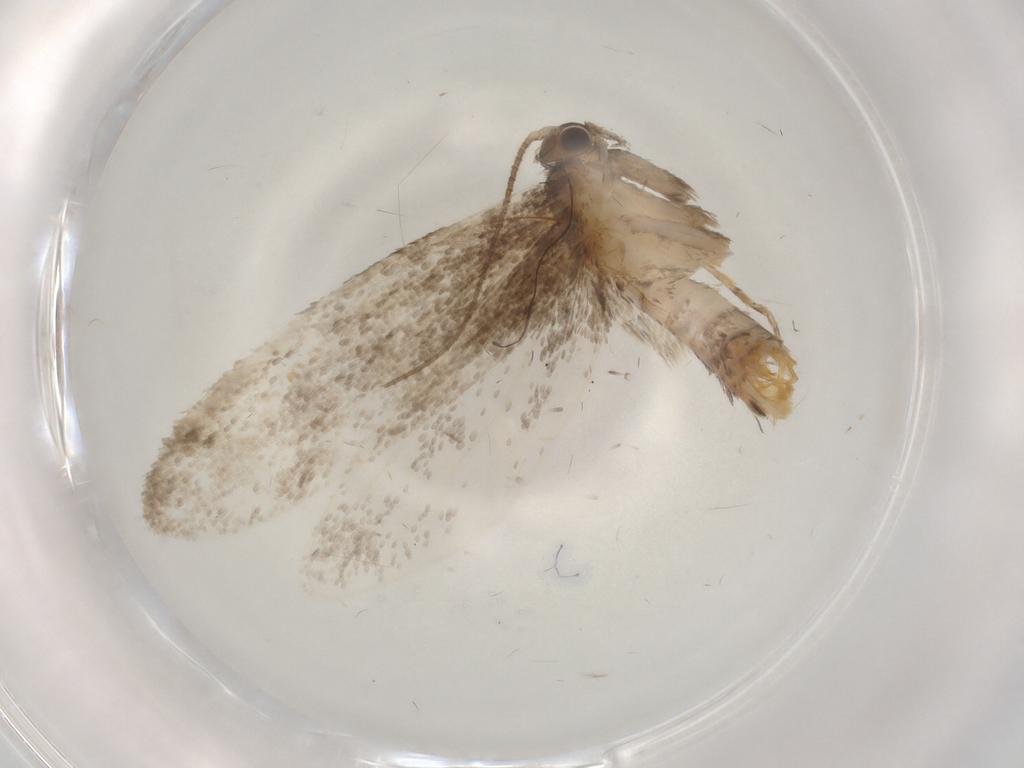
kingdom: Animalia
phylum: Arthropoda
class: Insecta
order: Lepidoptera
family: Dryadaulidae
